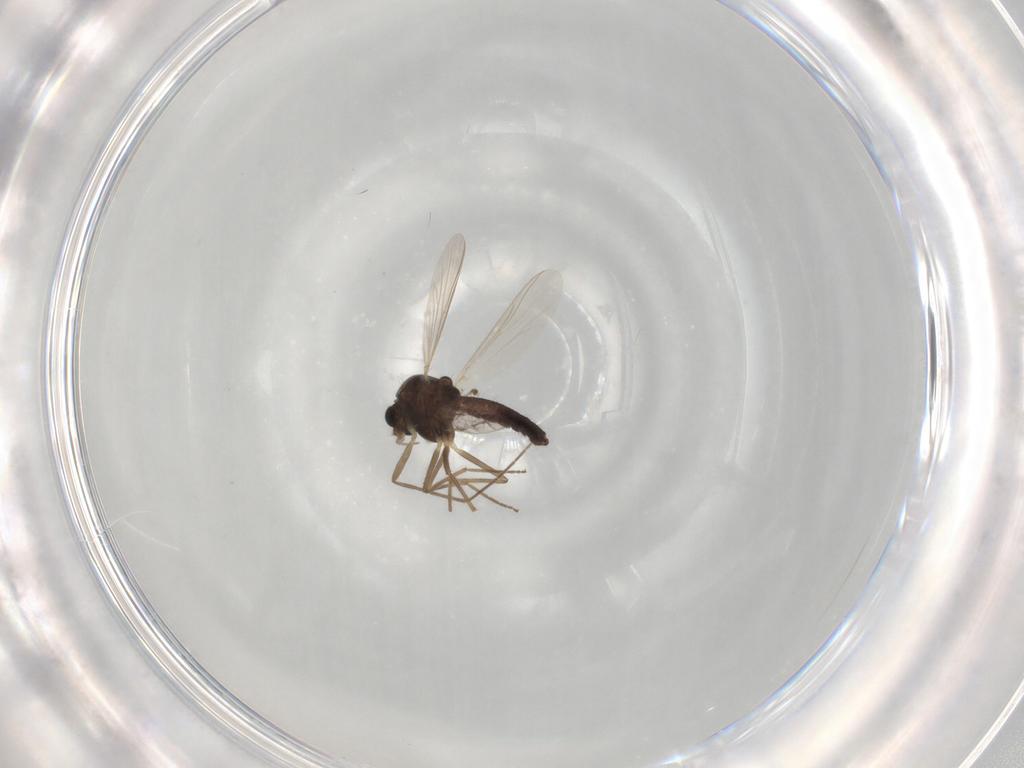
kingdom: Animalia
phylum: Arthropoda
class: Insecta
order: Diptera
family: Chironomidae
